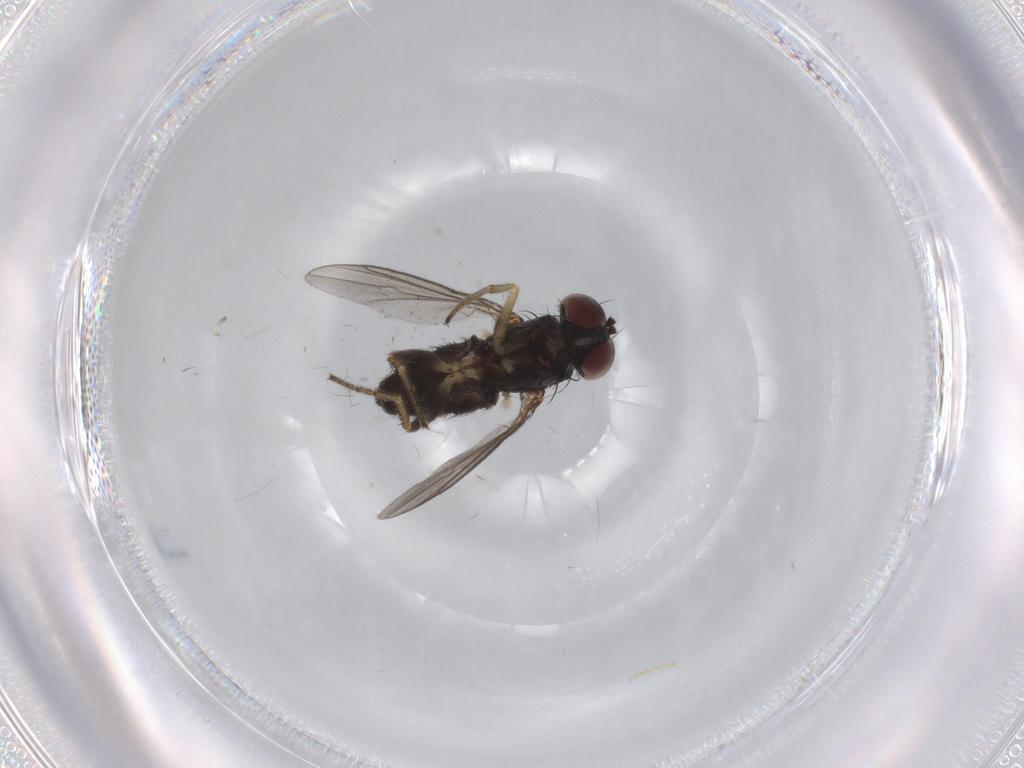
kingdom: Animalia
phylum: Arthropoda
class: Insecta
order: Diptera
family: Dolichopodidae
